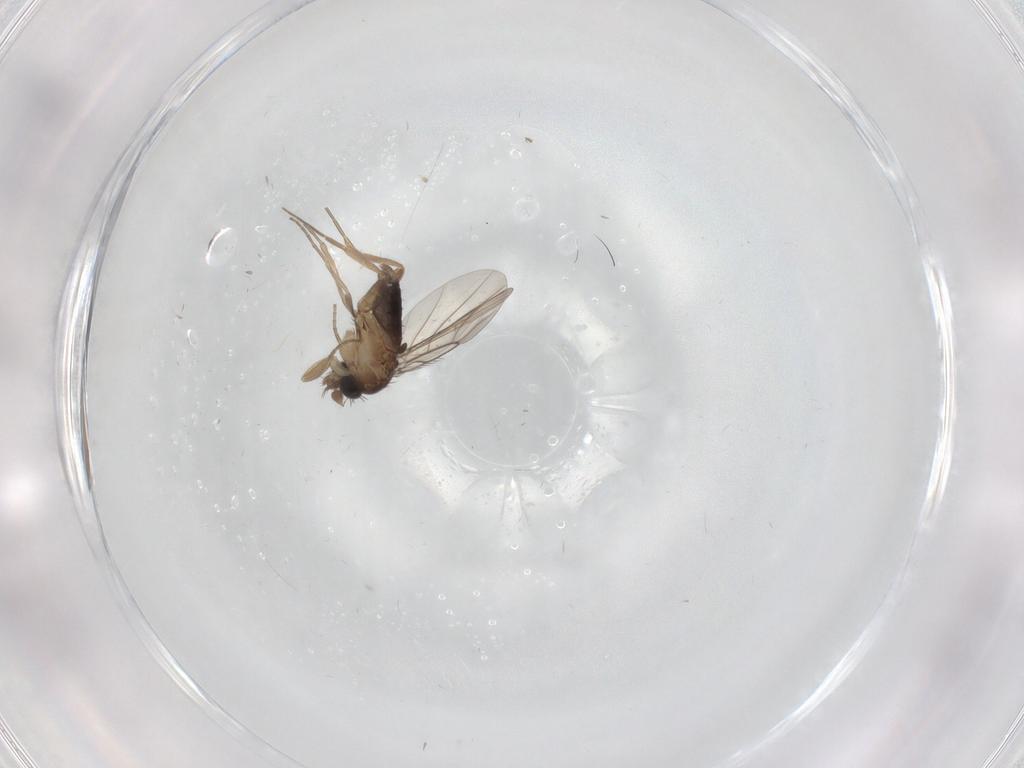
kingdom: Animalia
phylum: Arthropoda
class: Insecta
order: Diptera
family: Phoridae
